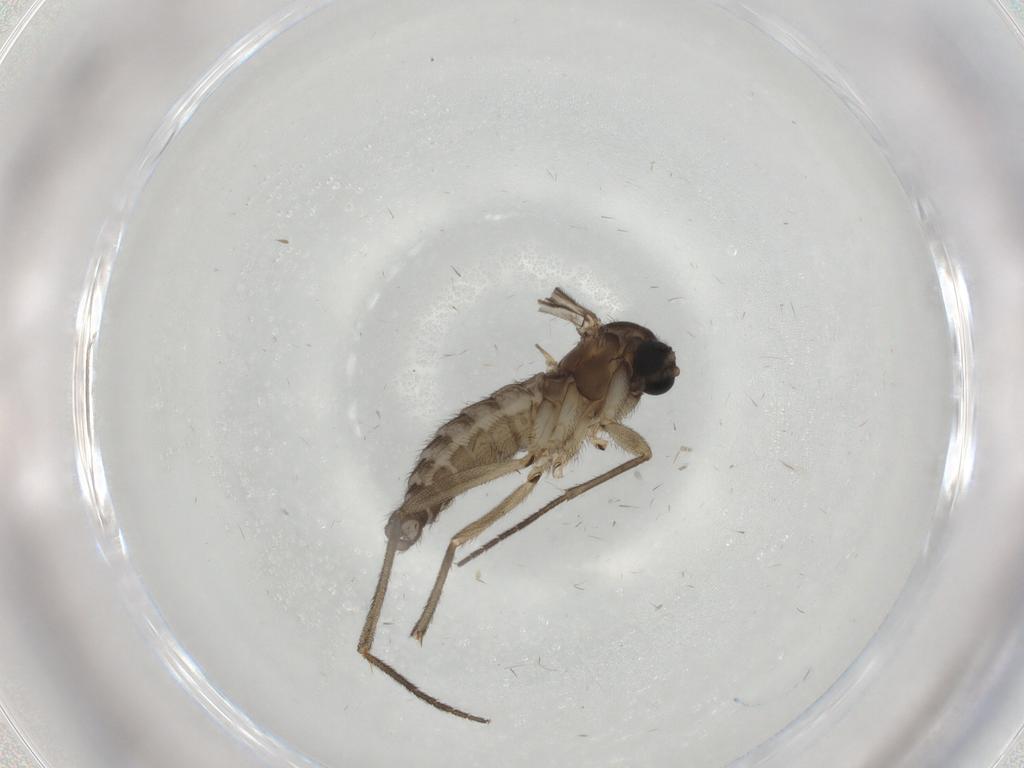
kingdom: Animalia
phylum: Arthropoda
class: Insecta
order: Diptera
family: Sciaridae
